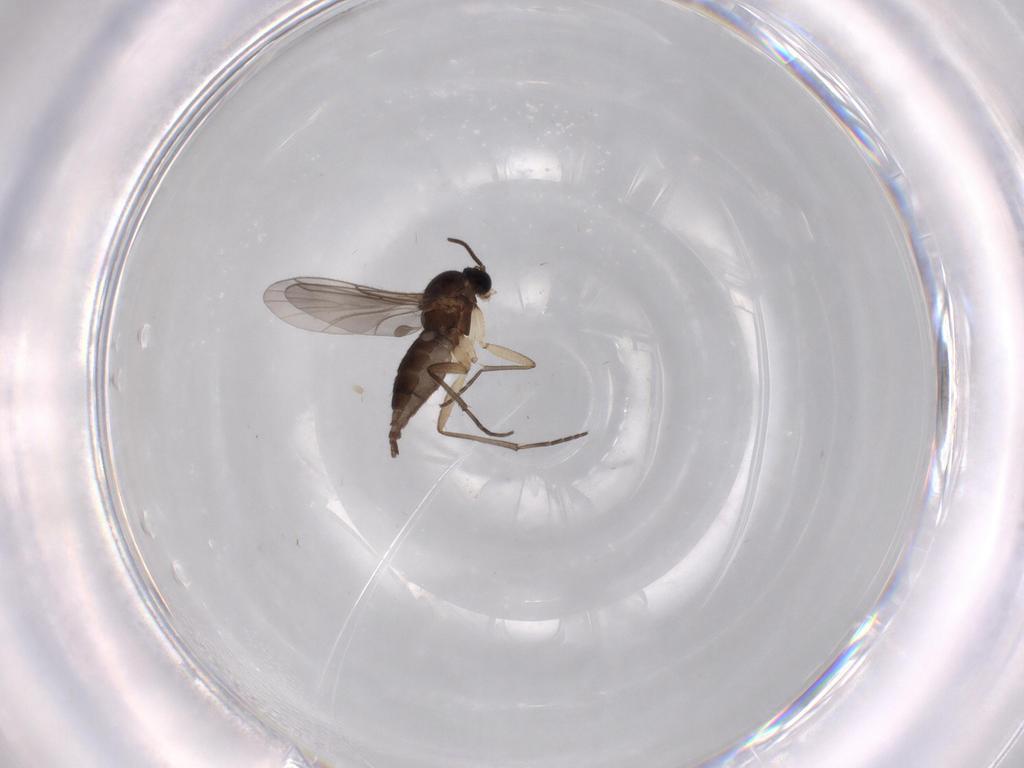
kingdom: Animalia
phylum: Arthropoda
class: Insecta
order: Diptera
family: Sciaridae
